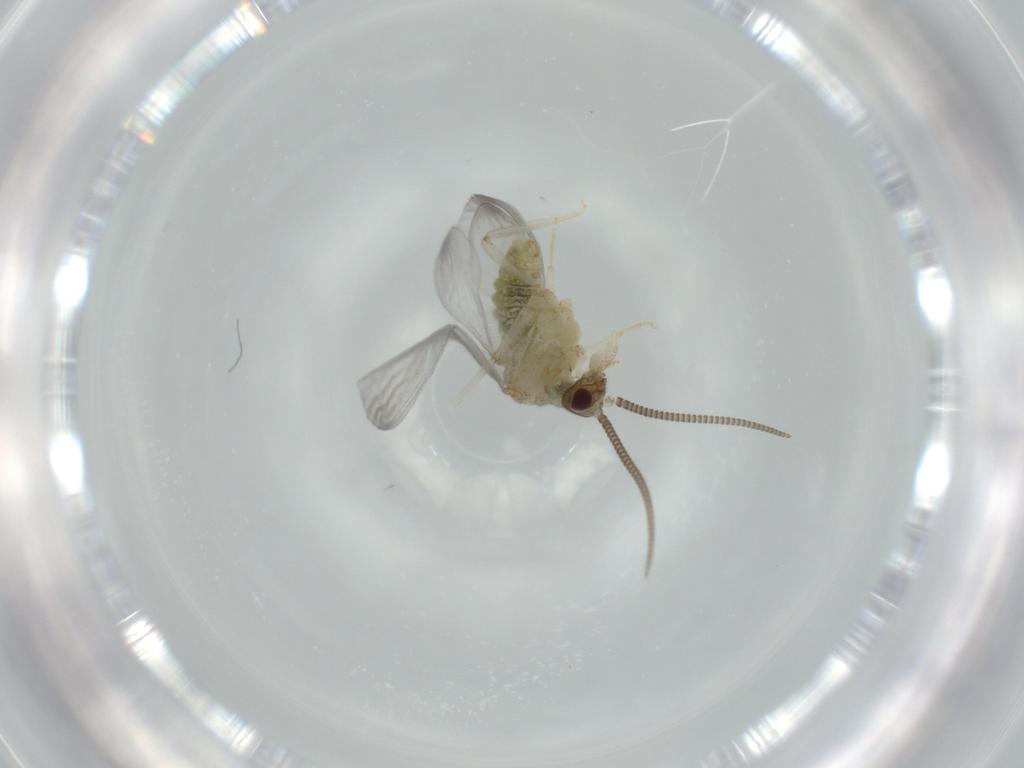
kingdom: Animalia
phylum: Arthropoda
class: Insecta
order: Neuroptera
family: Coniopterygidae
